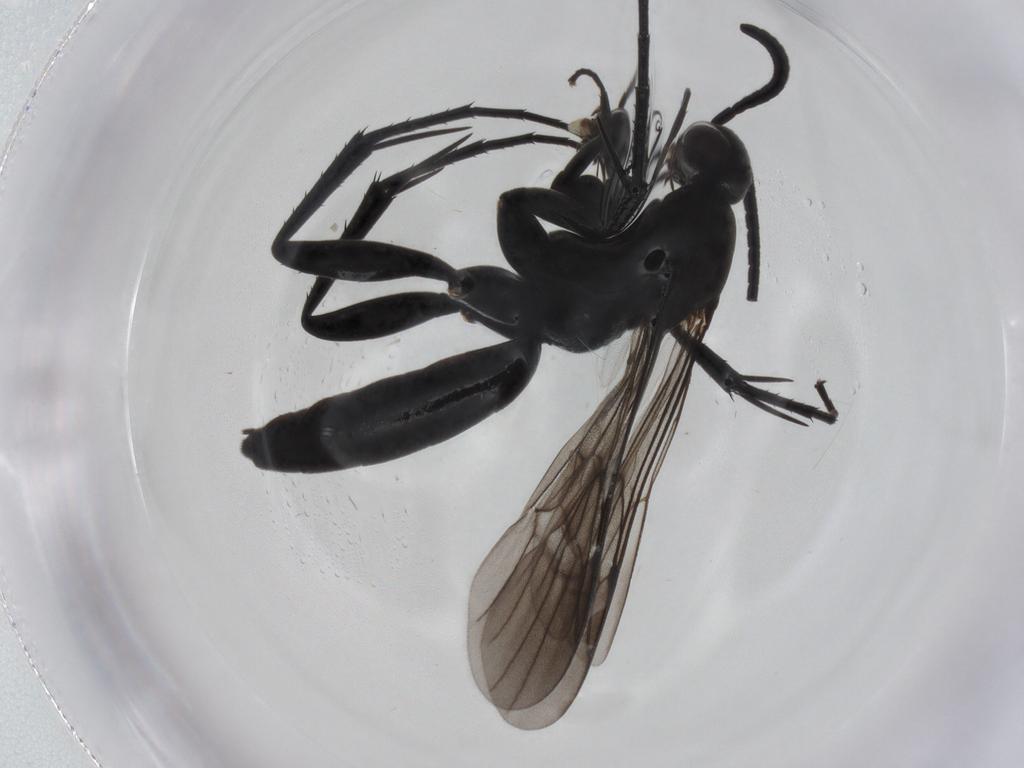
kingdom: Animalia
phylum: Arthropoda
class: Insecta
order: Hymenoptera
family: Pompilidae
